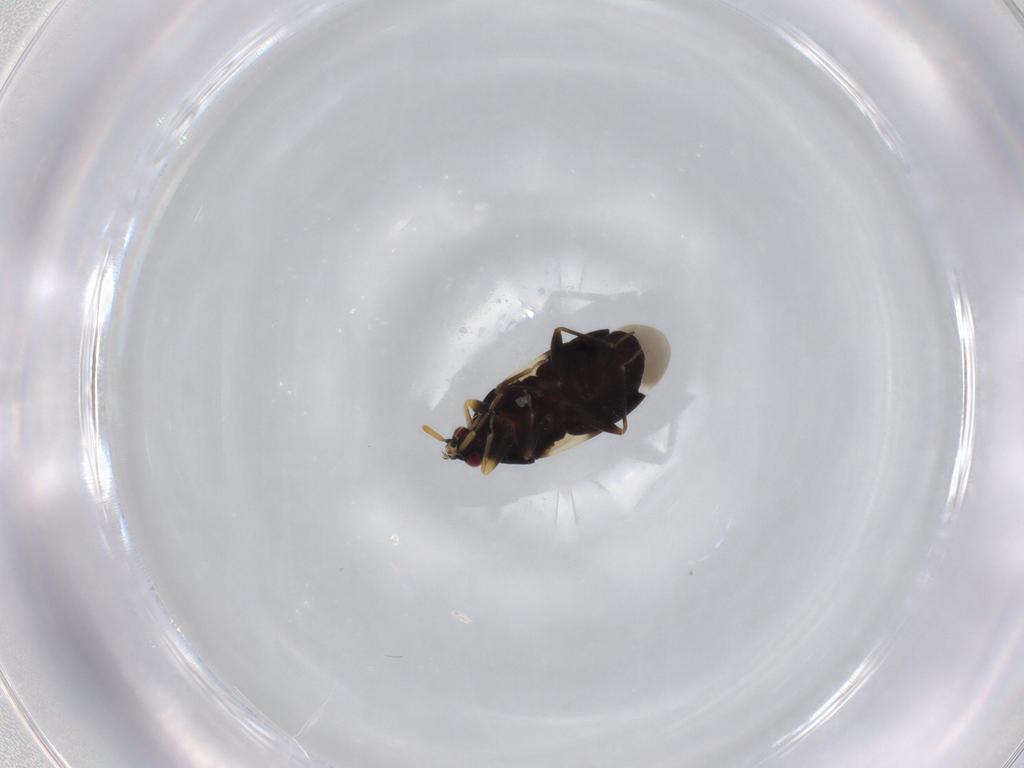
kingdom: Animalia
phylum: Arthropoda
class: Insecta
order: Hemiptera
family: Aphididae
